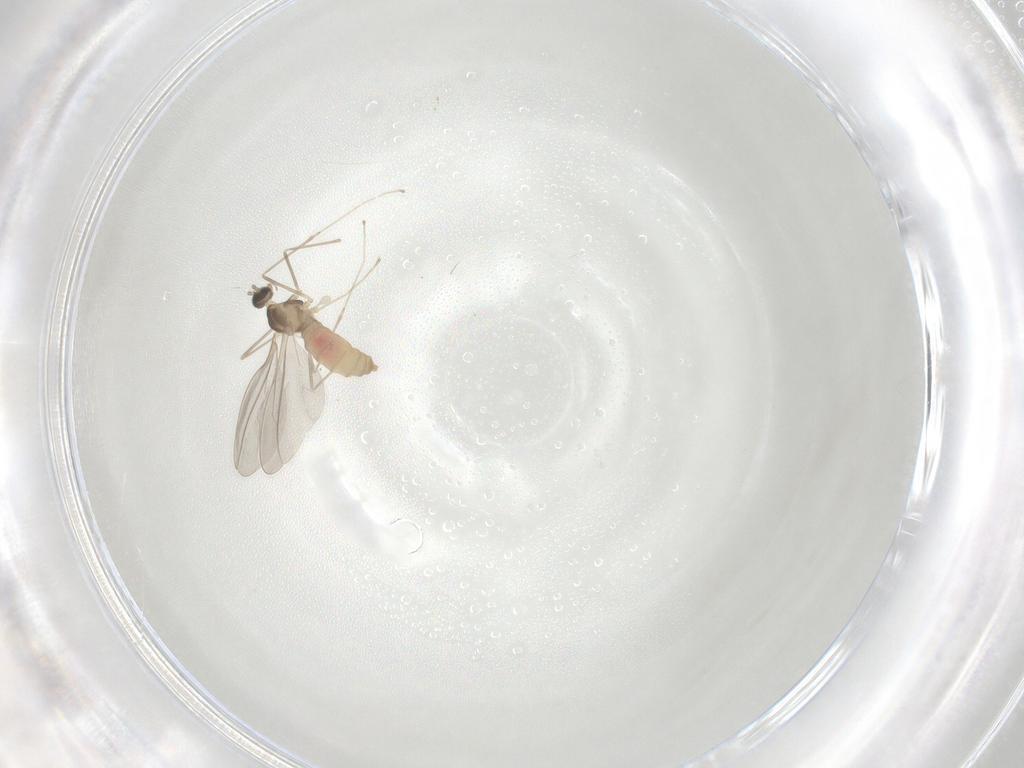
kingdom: Animalia
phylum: Arthropoda
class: Insecta
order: Diptera
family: Cecidomyiidae
